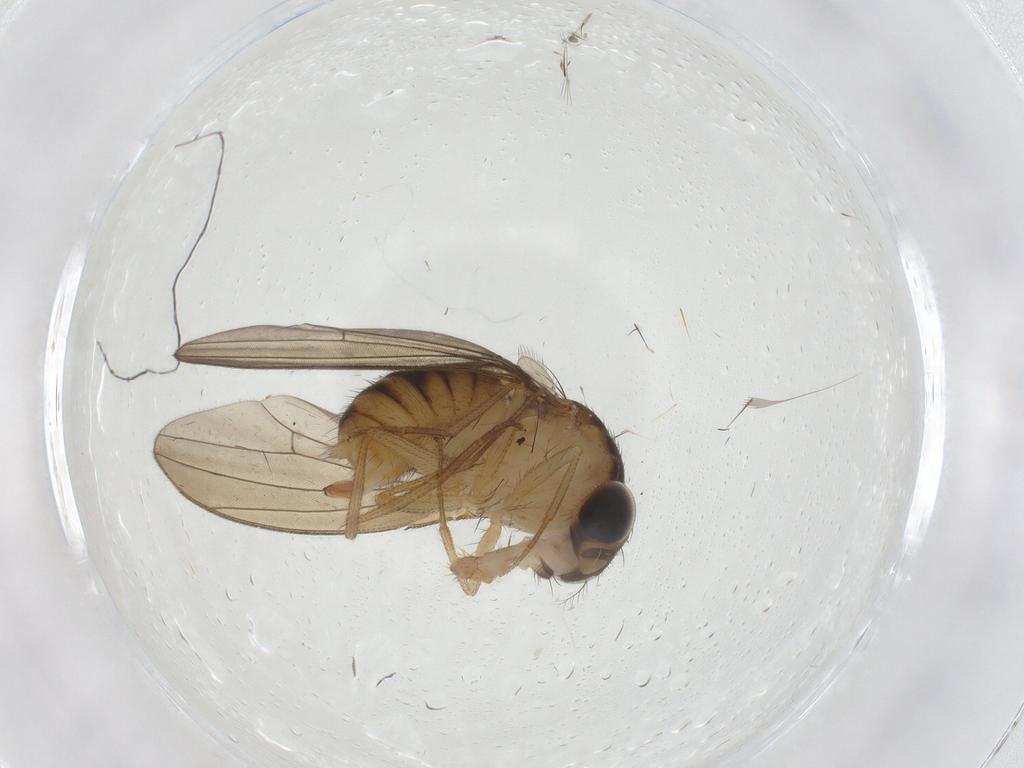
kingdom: Animalia
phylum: Arthropoda
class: Insecta
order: Diptera
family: Drosophilidae
